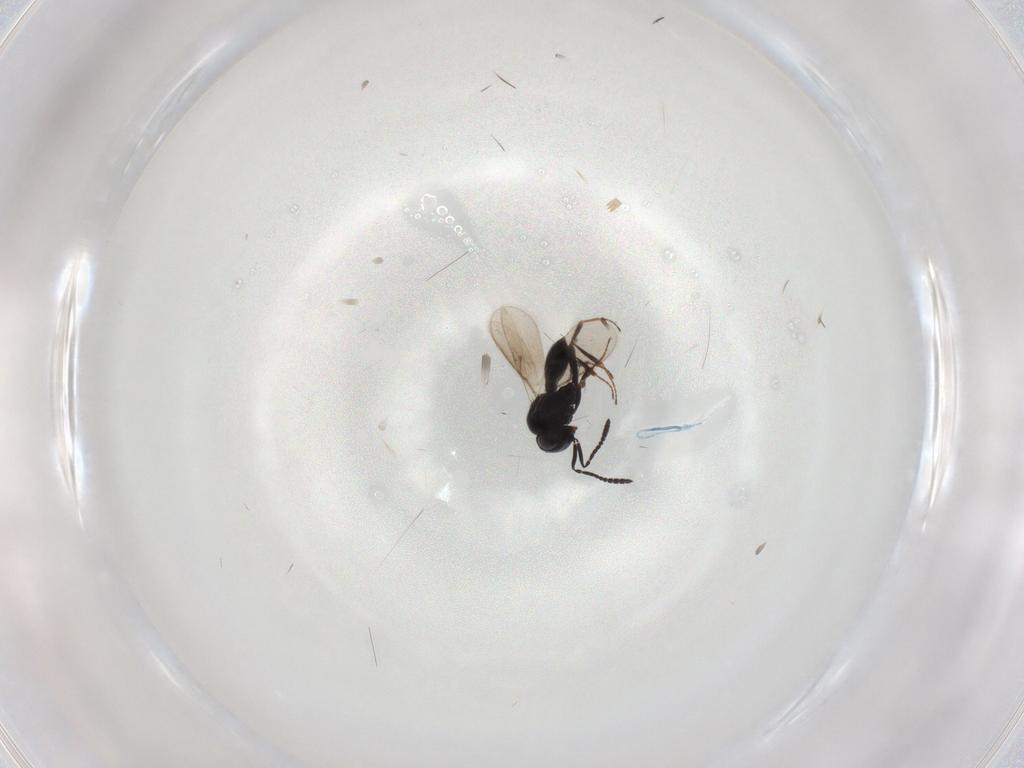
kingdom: Animalia
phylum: Arthropoda
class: Insecta
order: Hymenoptera
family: Scelionidae
